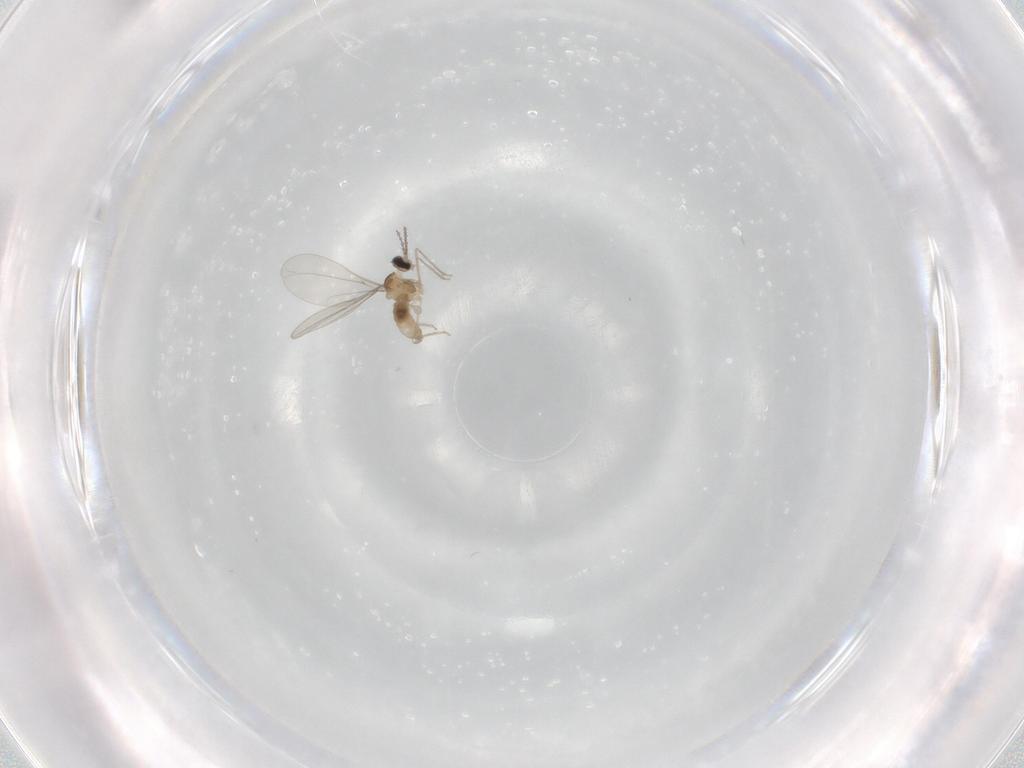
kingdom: Animalia
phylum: Arthropoda
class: Insecta
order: Diptera
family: Cecidomyiidae
